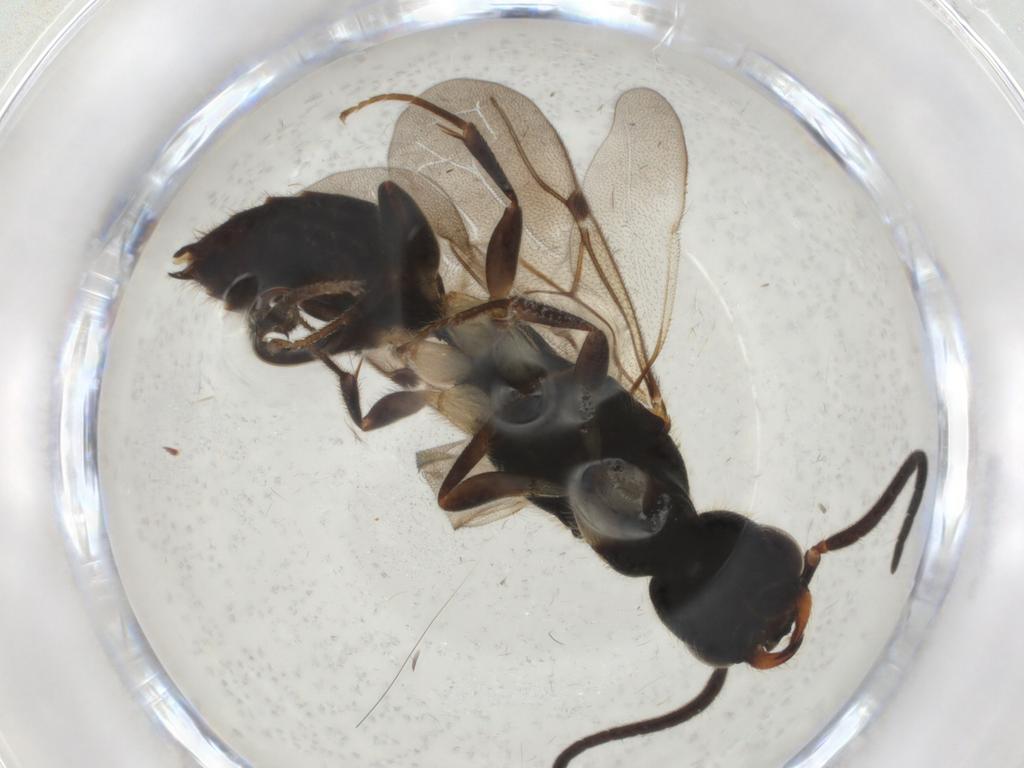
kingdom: Animalia
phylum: Arthropoda
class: Insecta
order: Hymenoptera
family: Bethylidae
